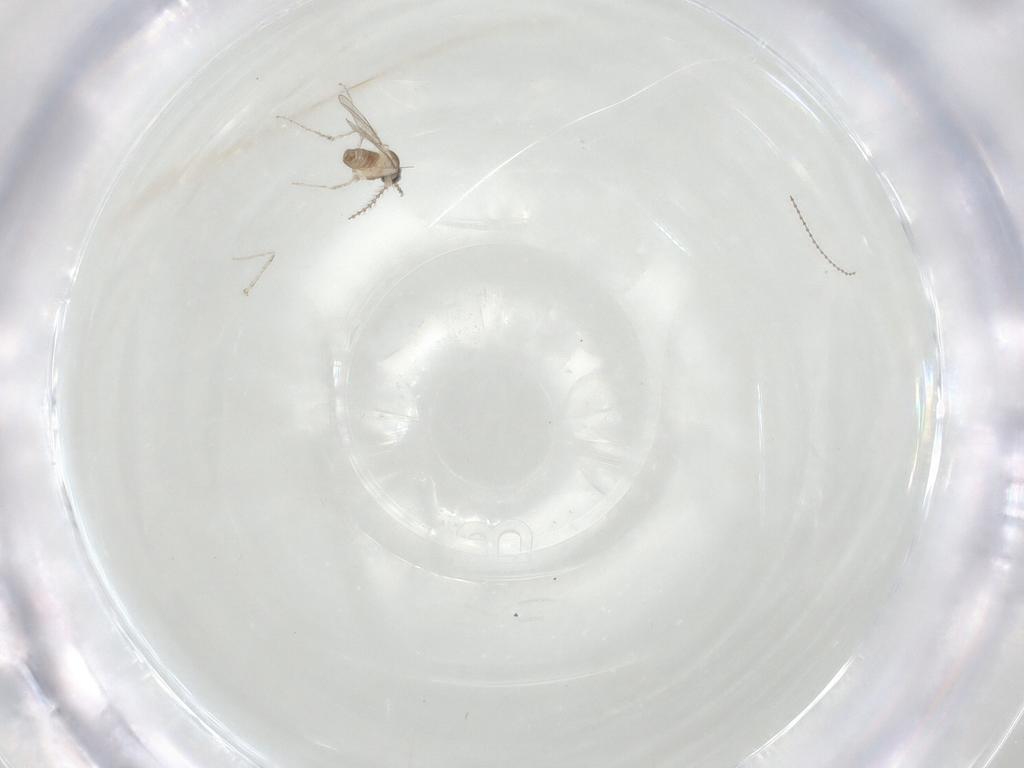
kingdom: Animalia
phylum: Arthropoda
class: Insecta
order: Diptera
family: Cecidomyiidae
